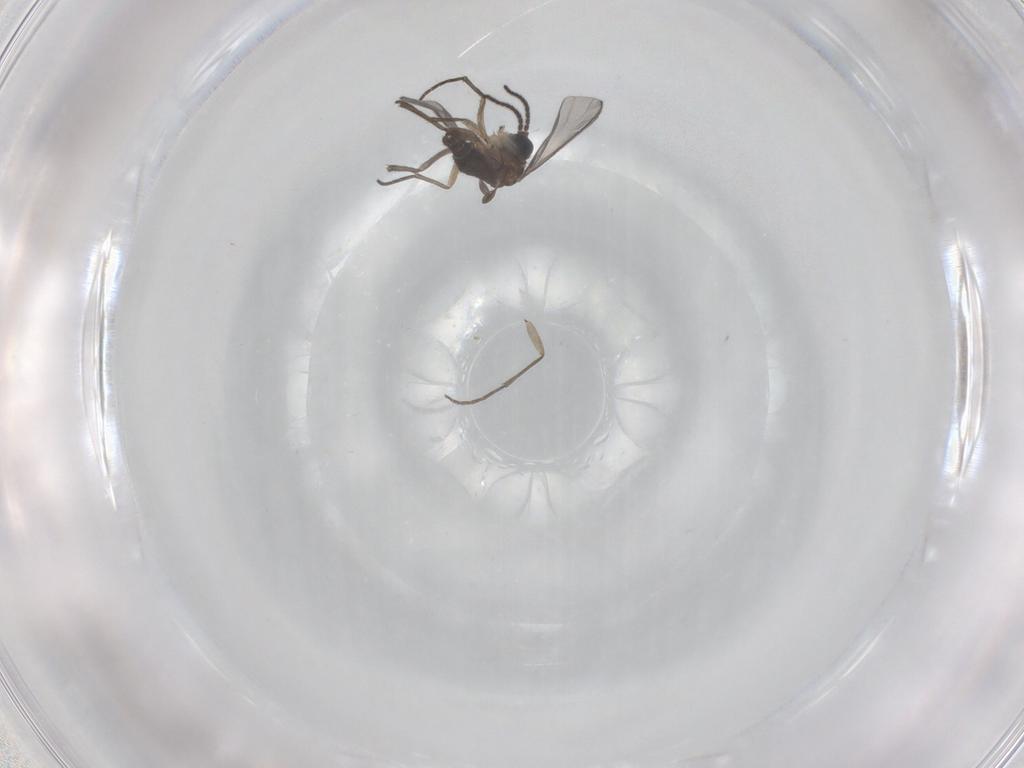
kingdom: Animalia
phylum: Arthropoda
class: Insecta
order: Diptera
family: Sciaridae
